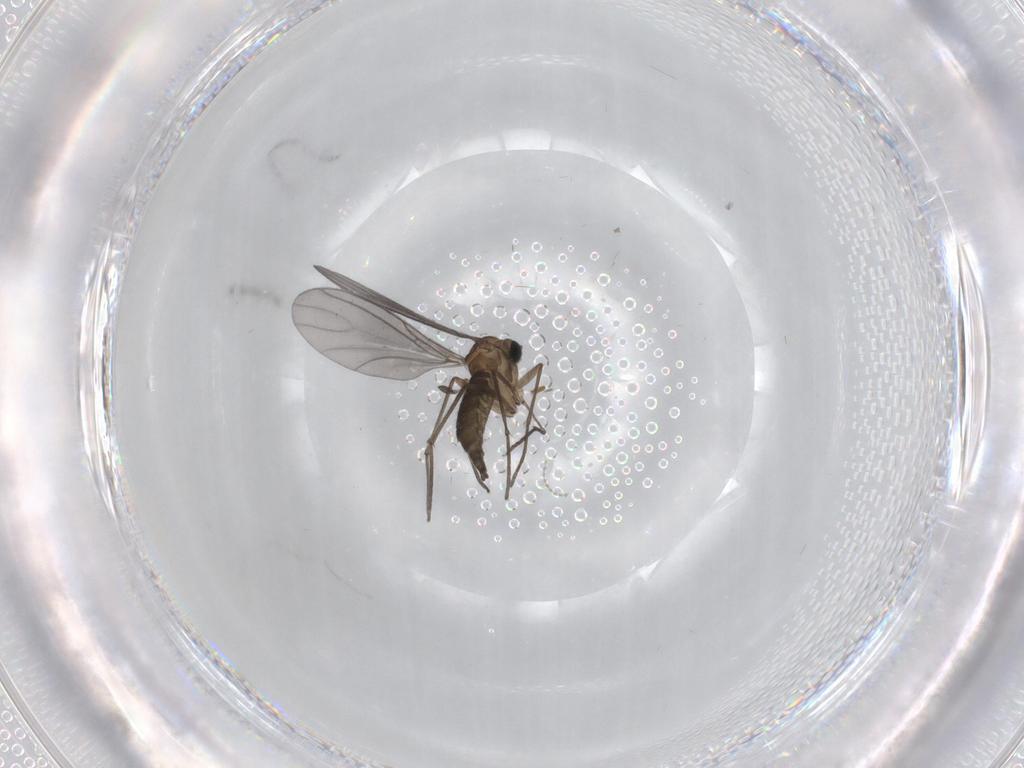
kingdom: Animalia
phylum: Arthropoda
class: Insecta
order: Diptera
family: Sciaridae
